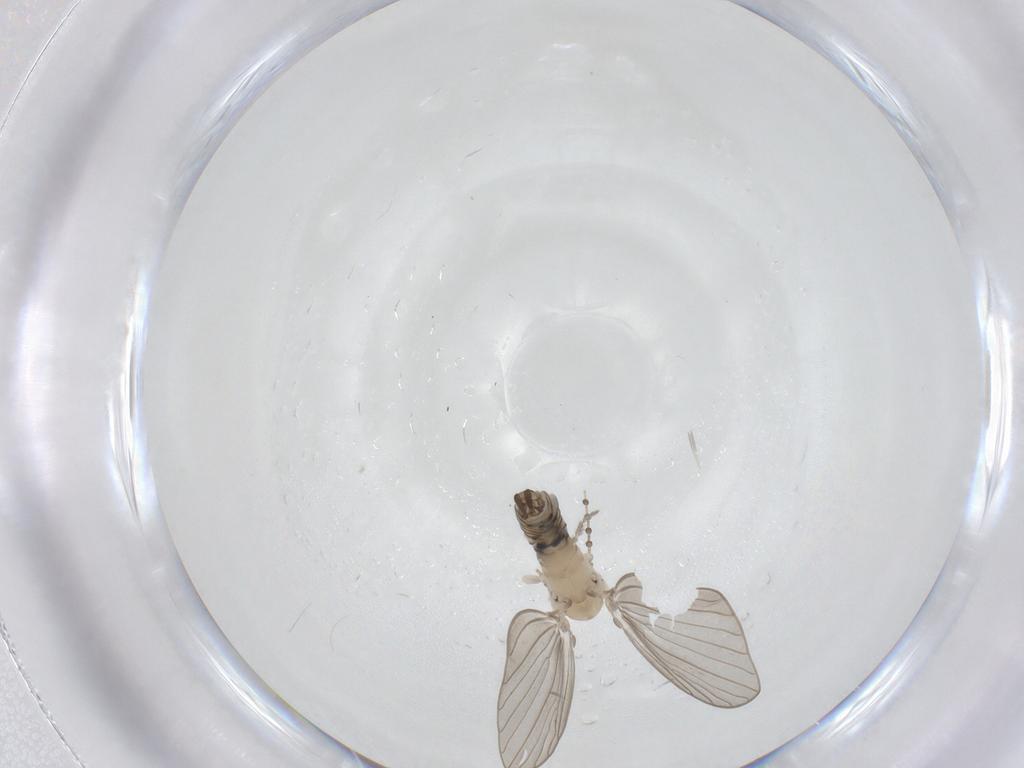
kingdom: Animalia
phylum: Arthropoda
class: Insecta
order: Diptera
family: Psychodidae
